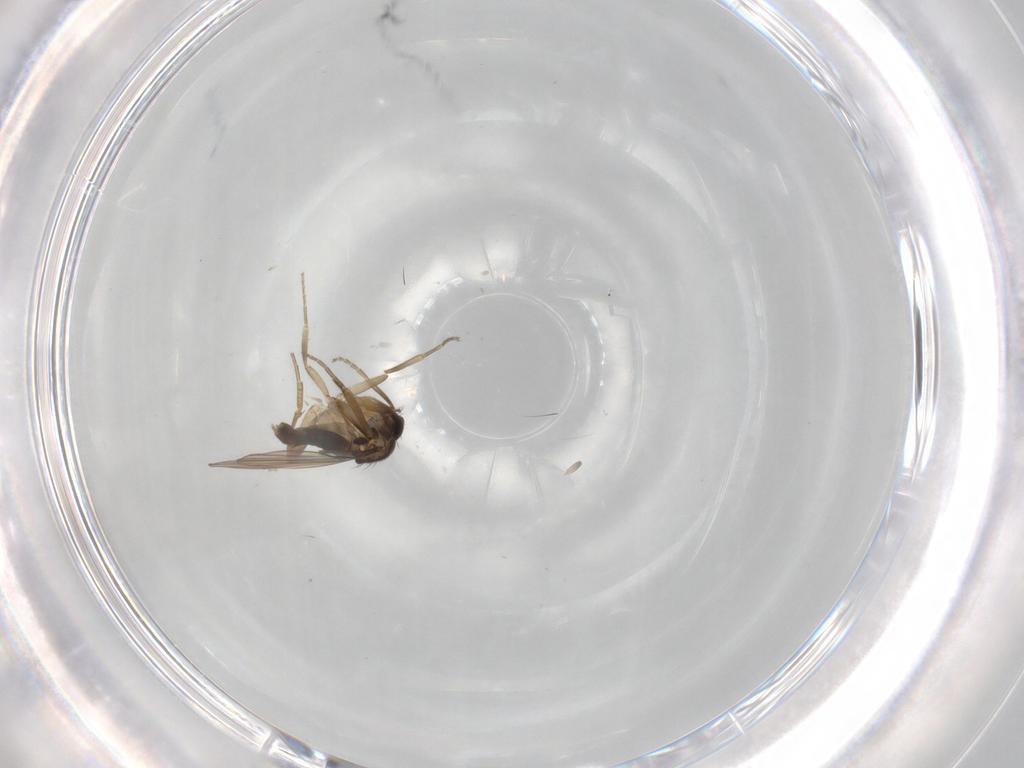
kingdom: Animalia
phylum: Arthropoda
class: Insecta
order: Diptera
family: Phoridae
